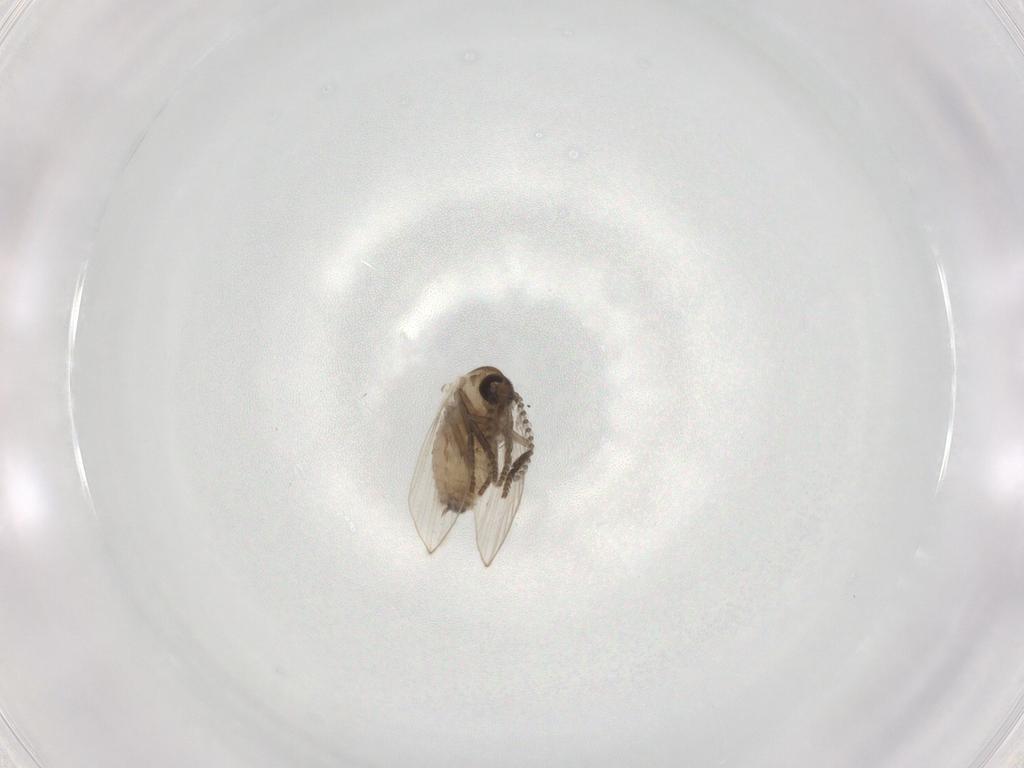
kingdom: Animalia
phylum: Arthropoda
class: Insecta
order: Diptera
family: Psychodidae
